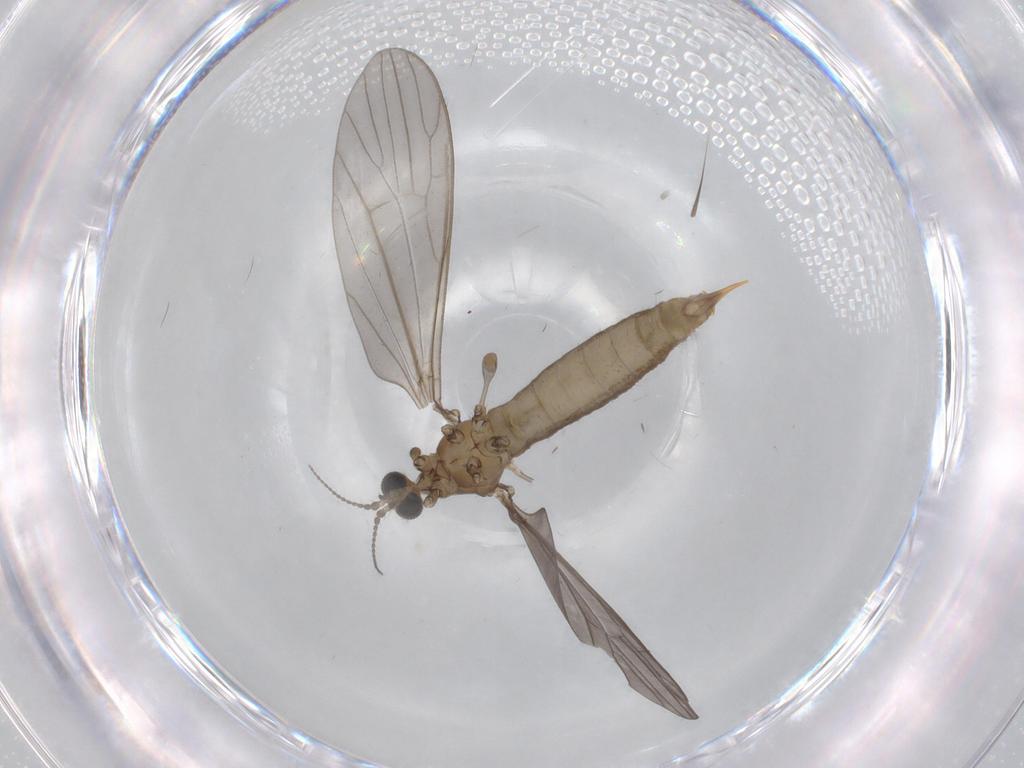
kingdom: Animalia
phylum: Arthropoda
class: Insecta
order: Diptera
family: Limoniidae
